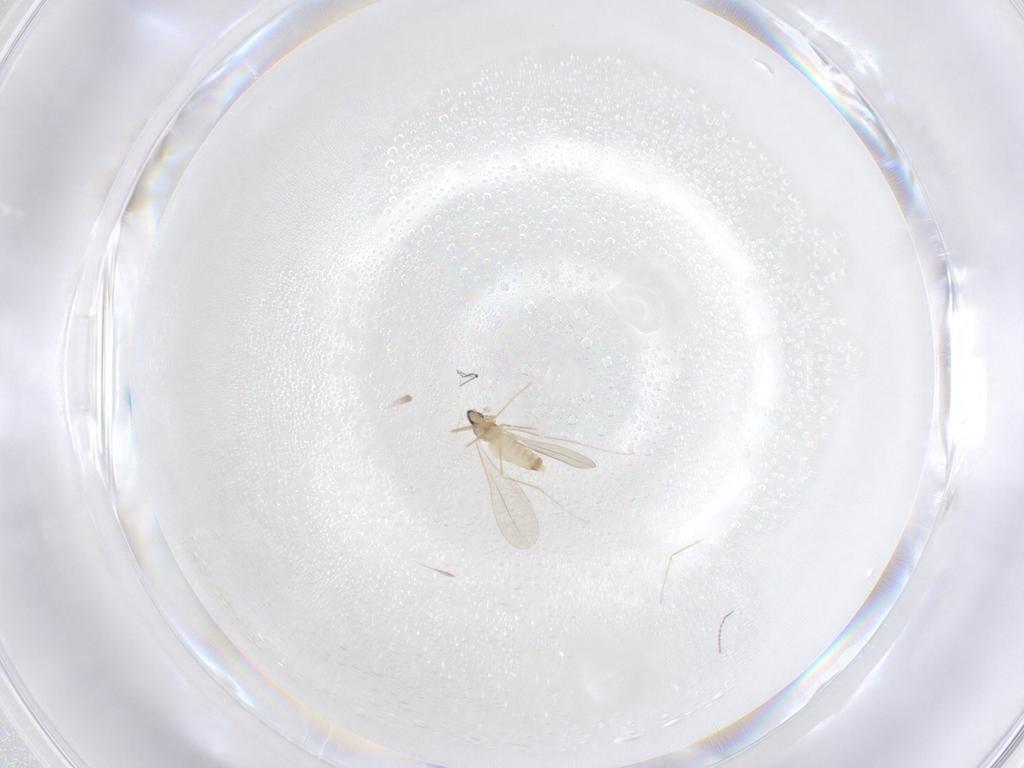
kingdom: Animalia
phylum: Arthropoda
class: Insecta
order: Diptera
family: Cecidomyiidae
